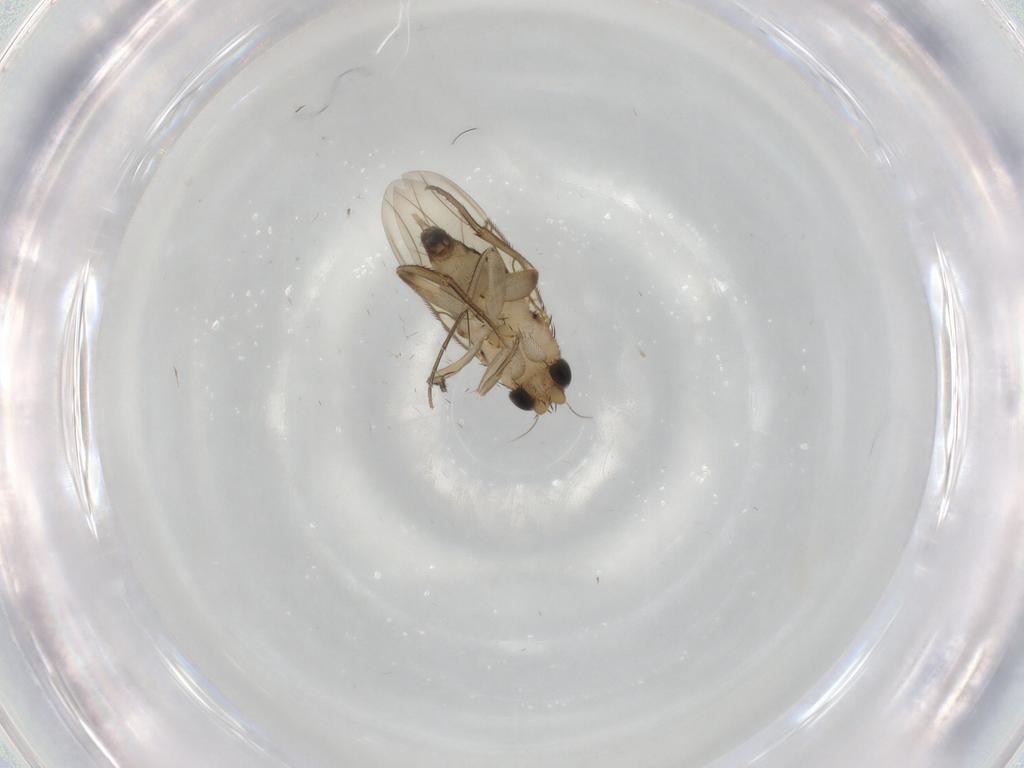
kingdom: Animalia
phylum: Arthropoda
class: Insecta
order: Diptera
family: Phoridae
